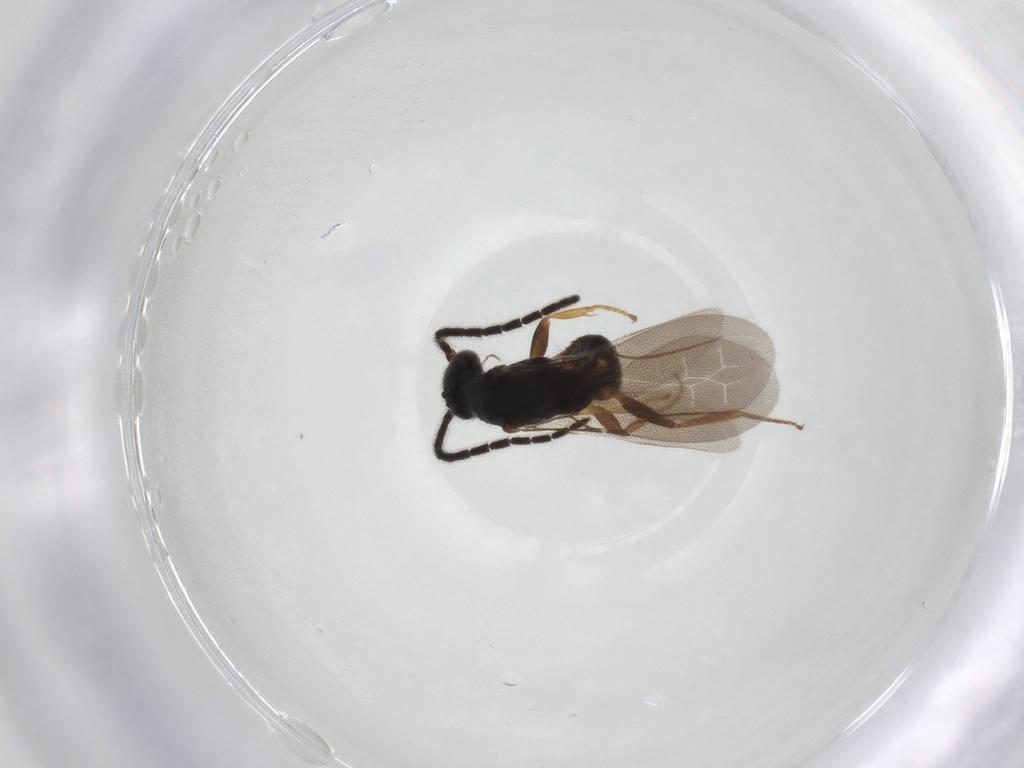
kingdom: Animalia
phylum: Arthropoda
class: Insecta
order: Hymenoptera
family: Bethylidae
